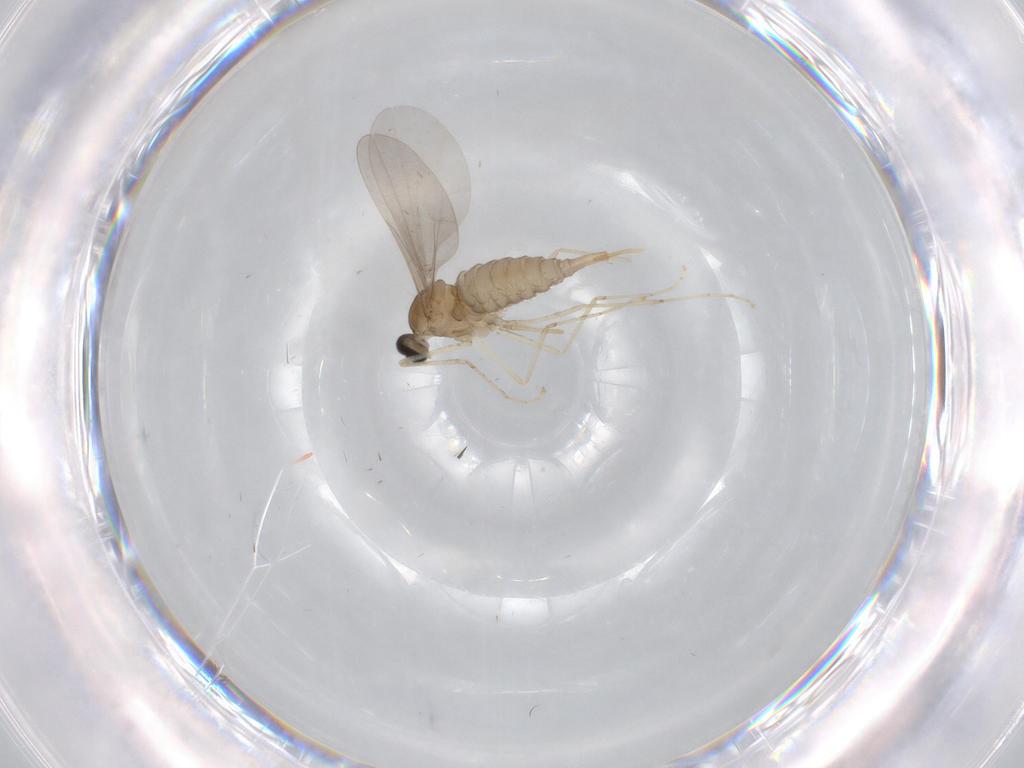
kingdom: Animalia
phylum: Arthropoda
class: Insecta
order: Diptera
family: Cecidomyiidae
